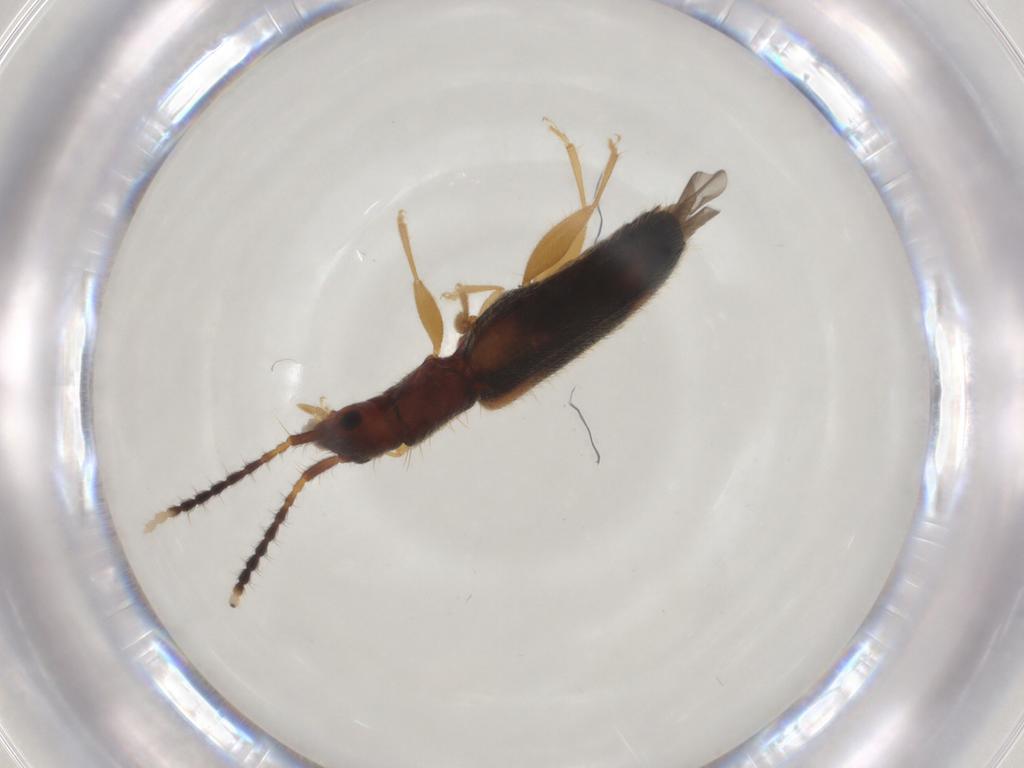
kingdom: Animalia
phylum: Arthropoda
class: Insecta
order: Coleoptera
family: Silvanidae
